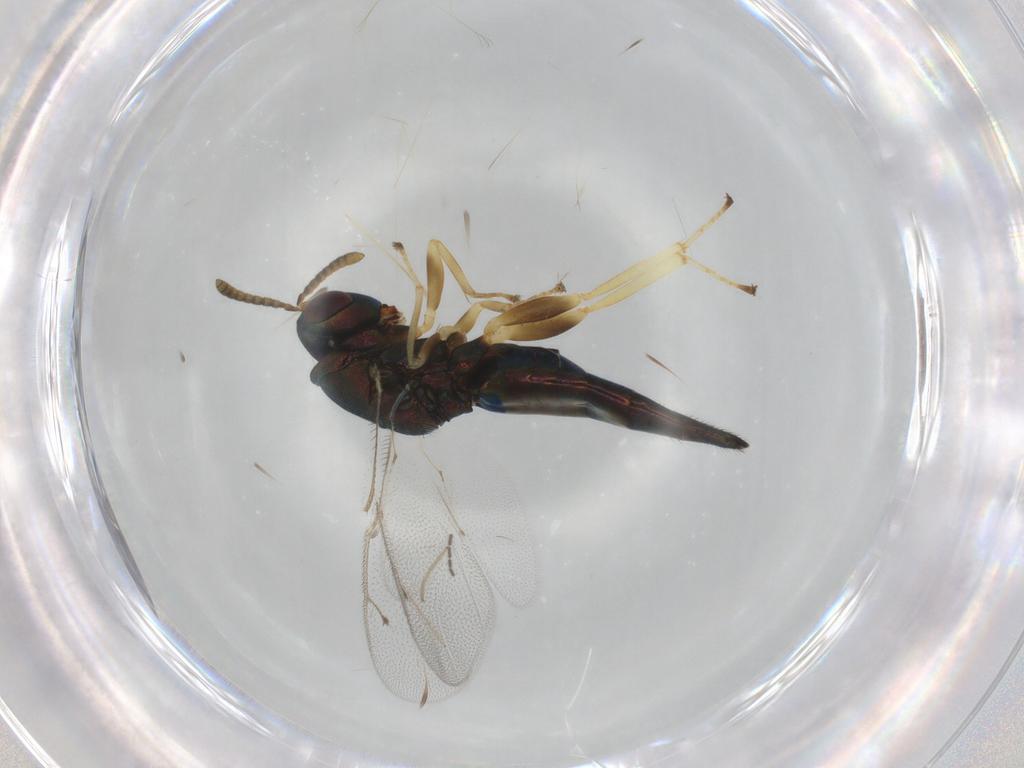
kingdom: Animalia
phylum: Arthropoda
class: Insecta
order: Hymenoptera
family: Pteromalidae
